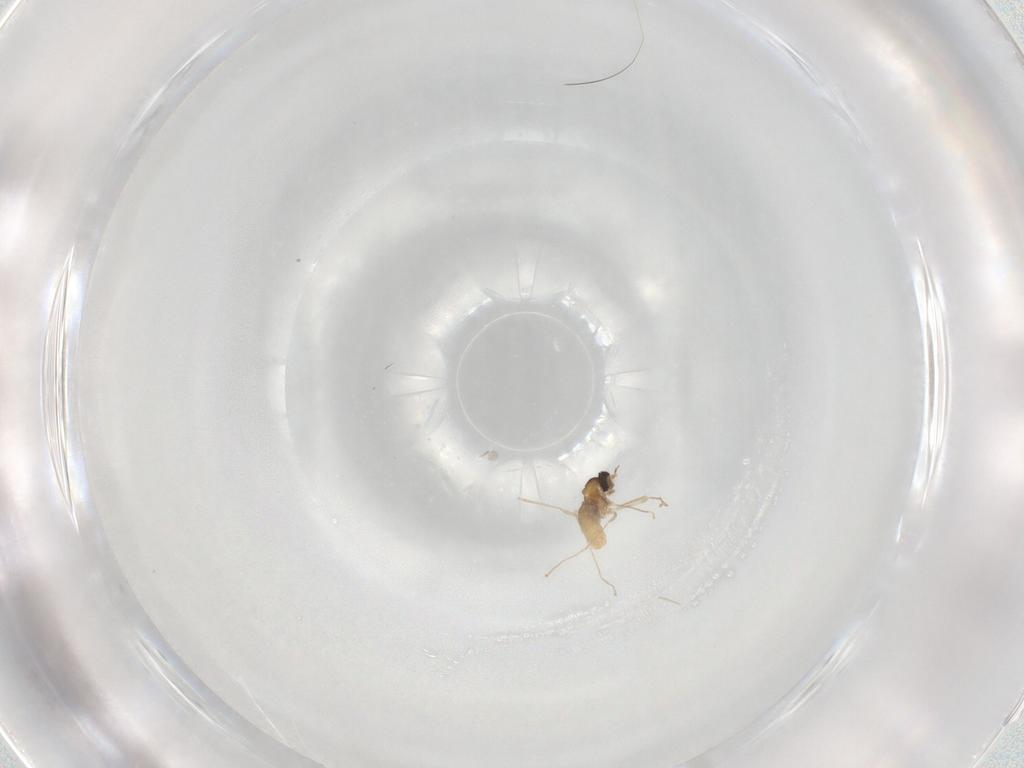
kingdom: Animalia
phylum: Arthropoda
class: Insecta
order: Diptera
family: Cecidomyiidae
